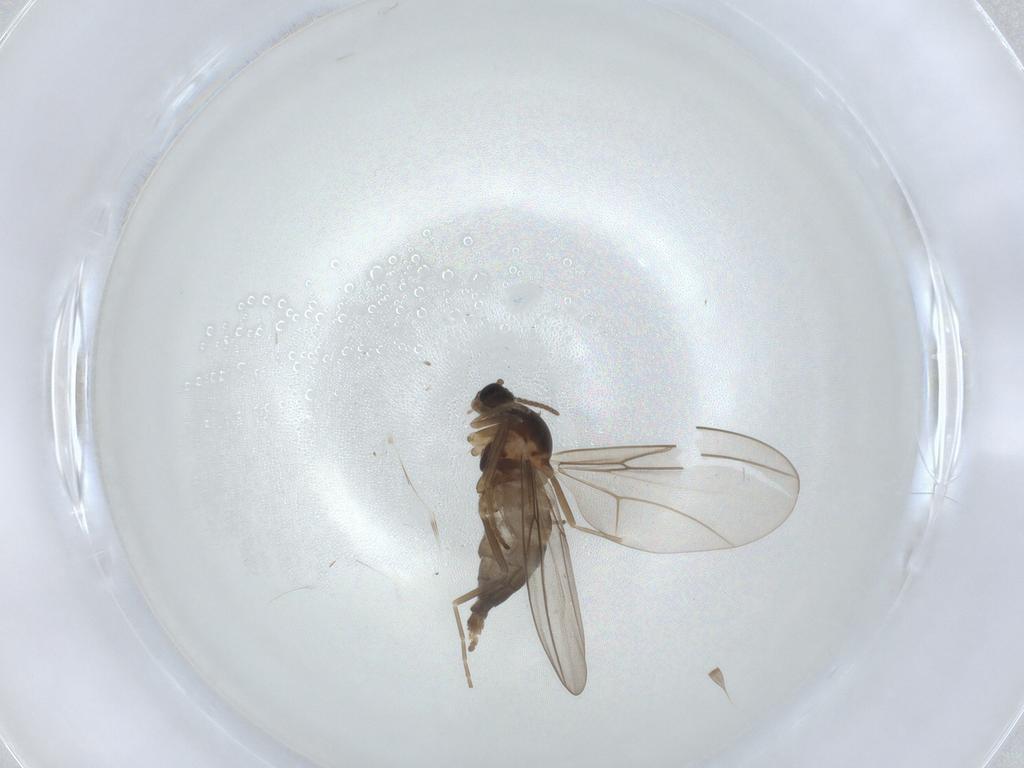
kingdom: Animalia
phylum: Arthropoda
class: Insecta
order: Diptera
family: Cecidomyiidae
